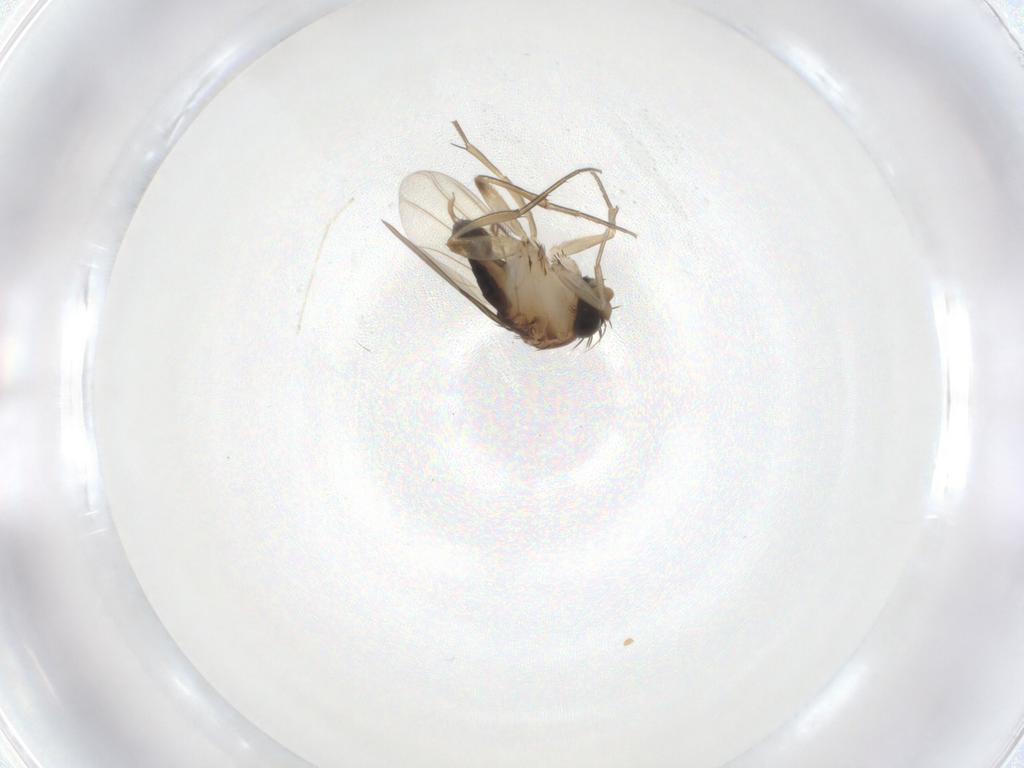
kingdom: Animalia
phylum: Arthropoda
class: Insecta
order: Diptera
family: Phoridae
